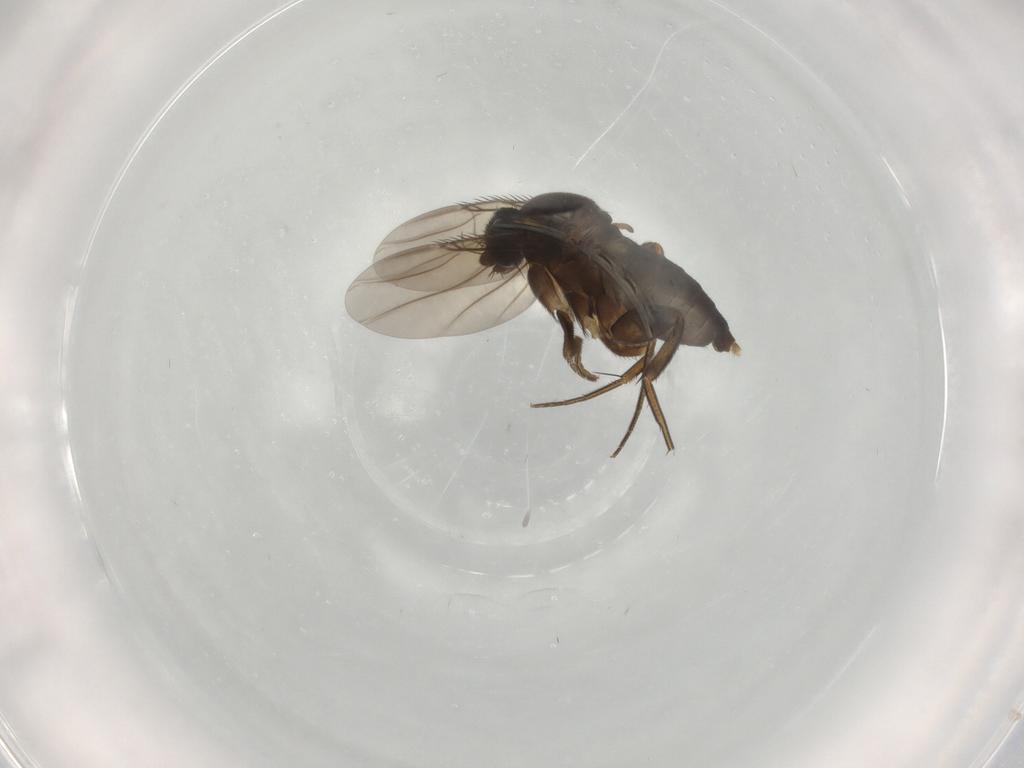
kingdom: Animalia
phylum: Arthropoda
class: Insecta
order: Diptera
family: Phoridae
